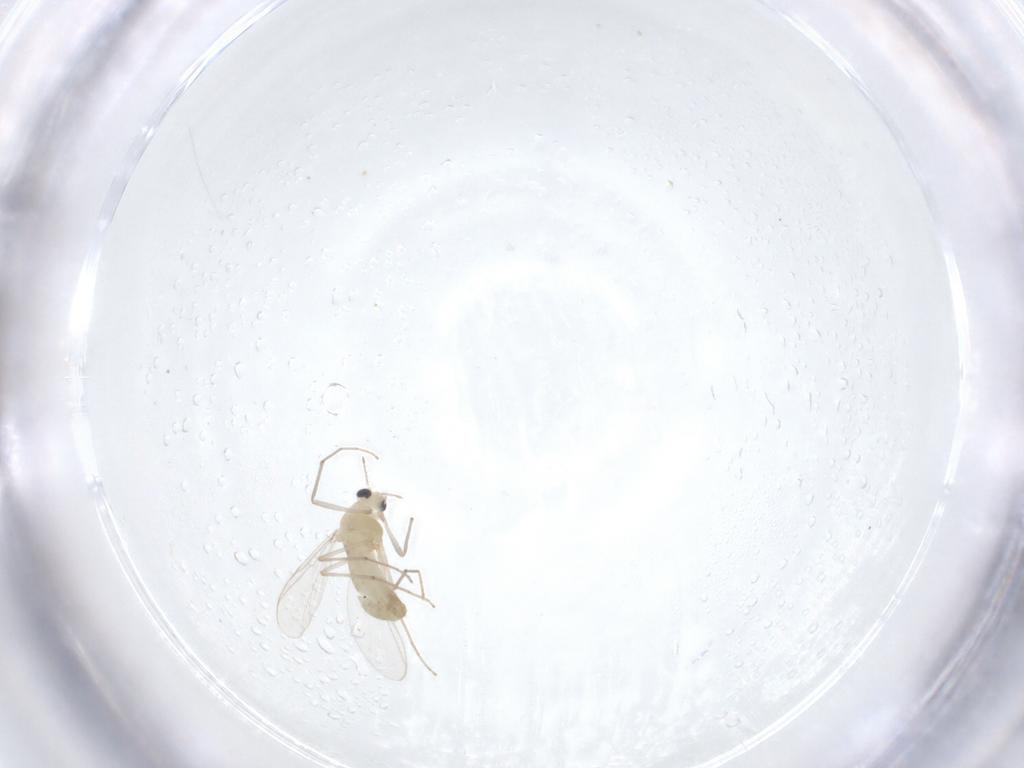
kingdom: Animalia
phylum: Arthropoda
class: Insecta
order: Diptera
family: Chironomidae
